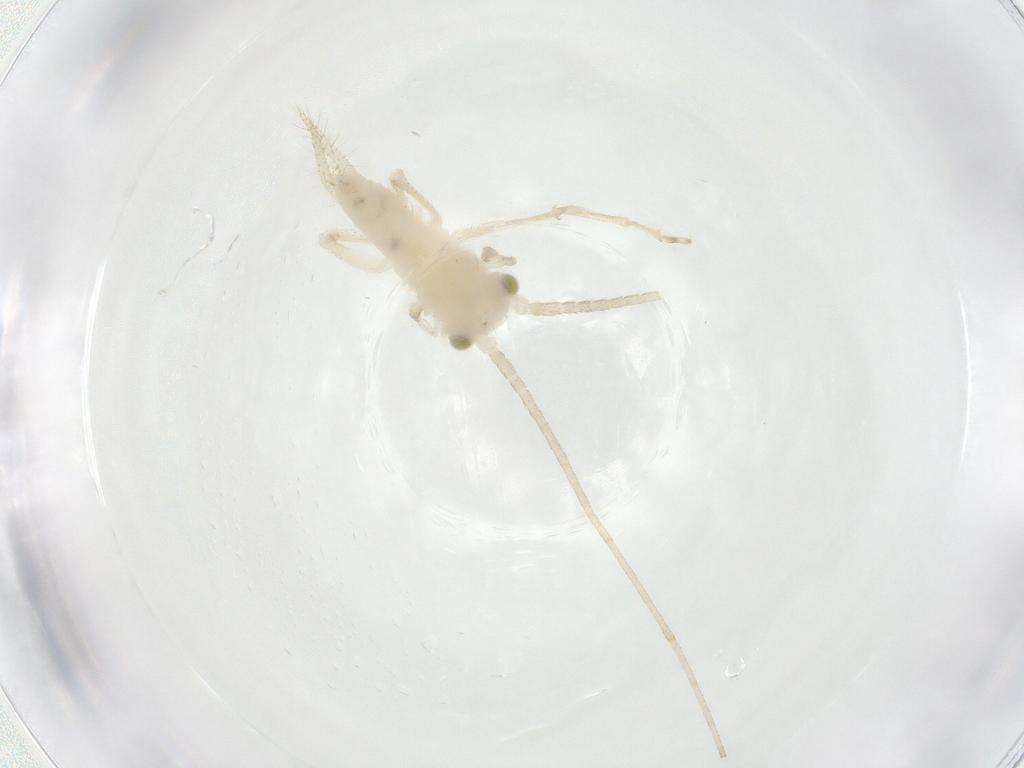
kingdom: Animalia
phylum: Arthropoda
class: Insecta
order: Orthoptera
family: Trigonidiidae
